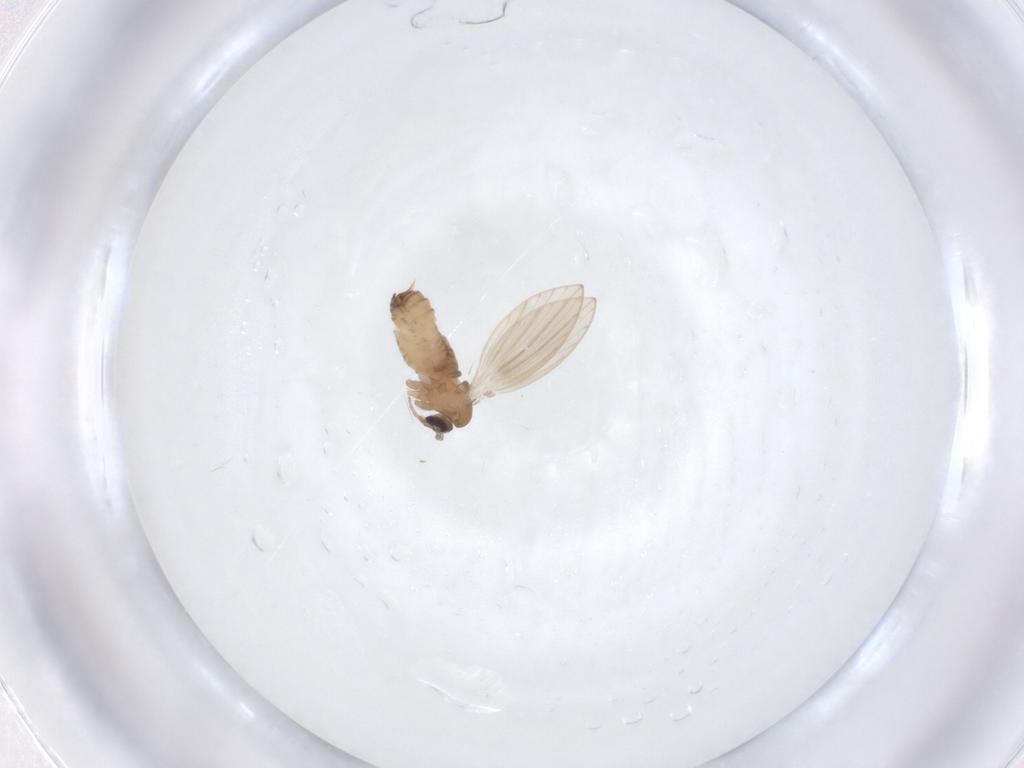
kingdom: Animalia
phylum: Arthropoda
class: Insecta
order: Diptera
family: Psychodidae
